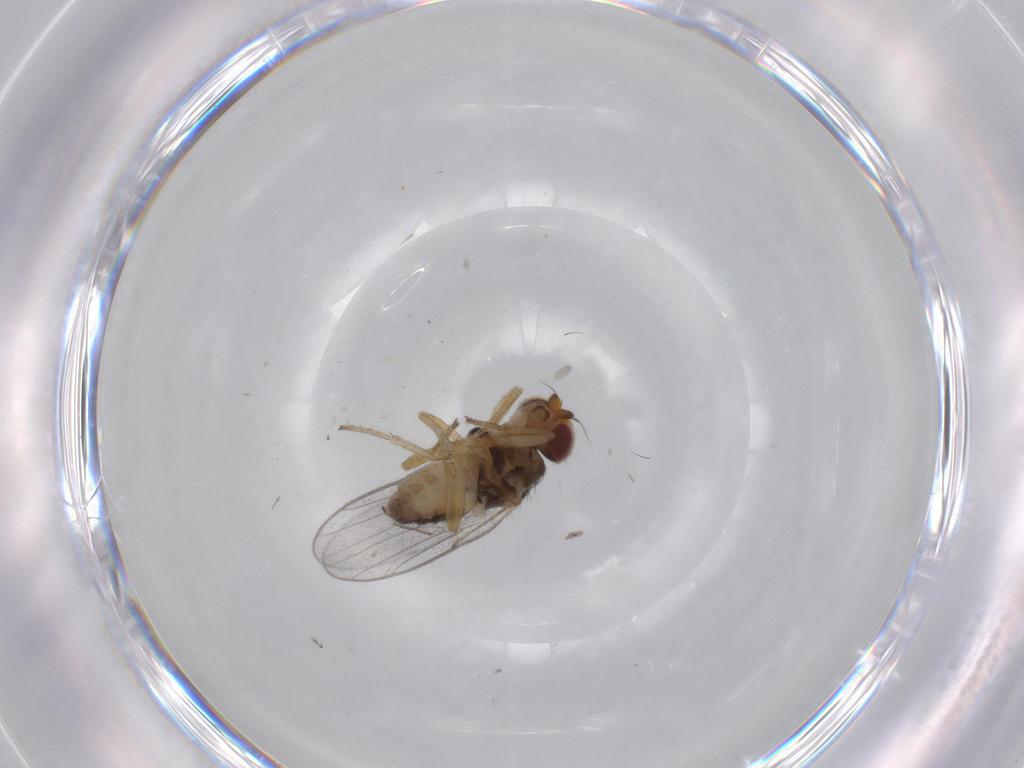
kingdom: Animalia
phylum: Arthropoda
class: Insecta
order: Diptera
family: Chloropidae
